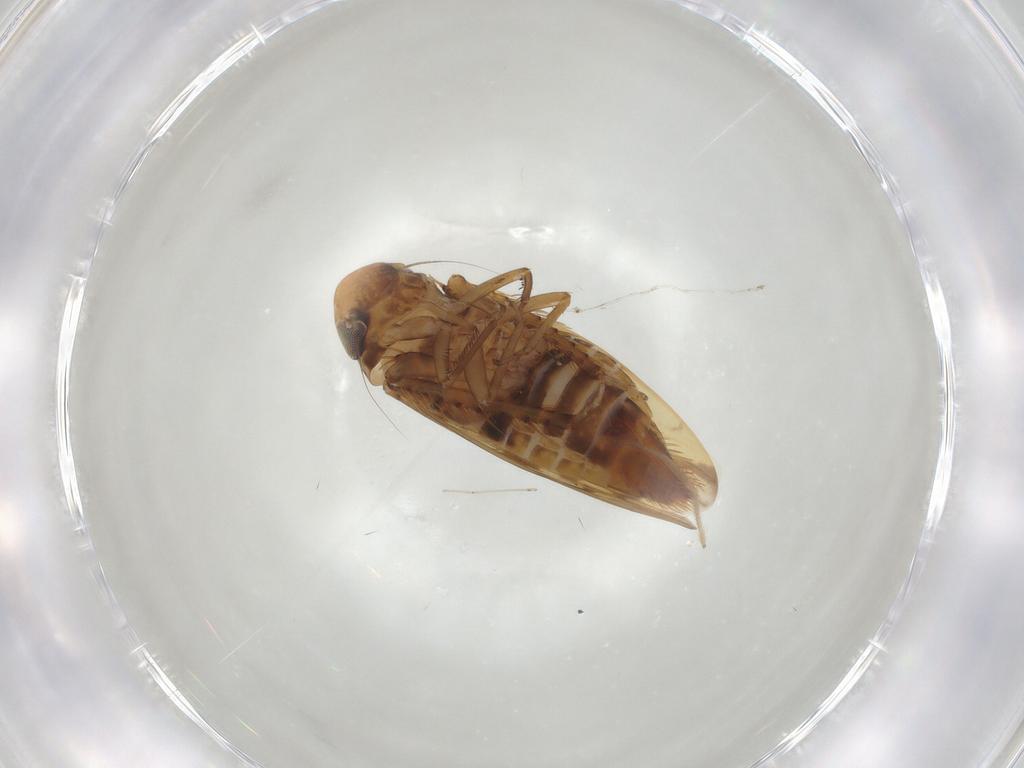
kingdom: Animalia
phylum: Arthropoda
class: Insecta
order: Hemiptera
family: Cicadellidae
